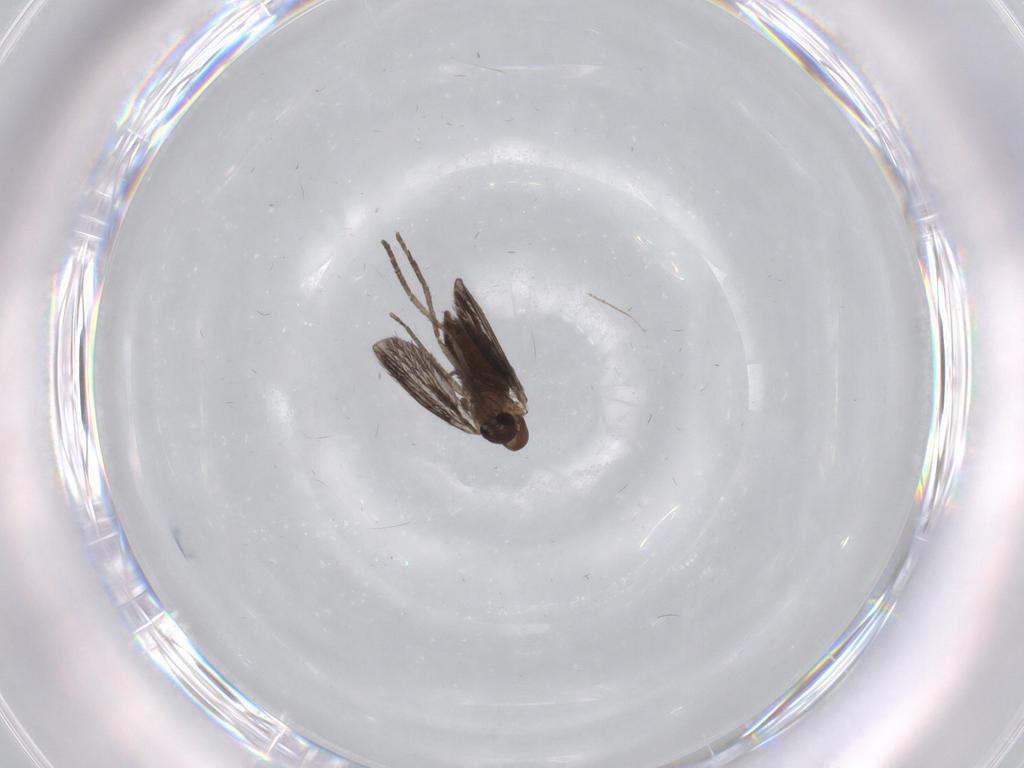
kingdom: Animalia
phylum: Arthropoda
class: Insecta
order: Diptera
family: Cecidomyiidae
